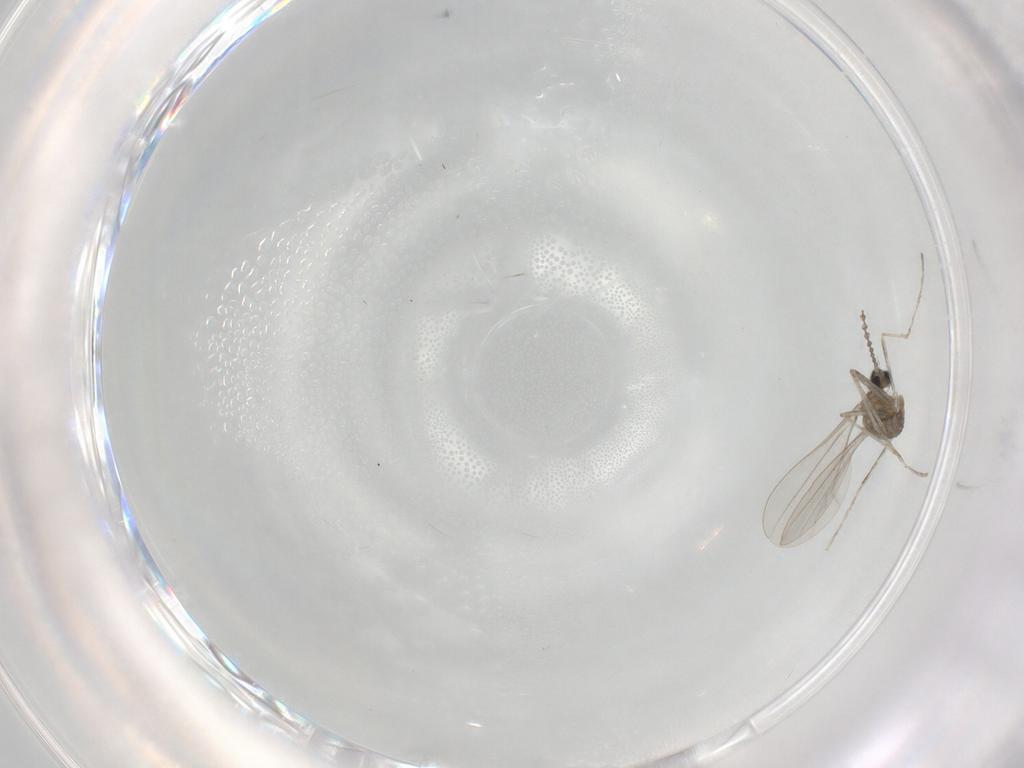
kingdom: Animalia
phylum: Arthropoda
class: Insecta
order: Diptera
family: Cecidomyiidae
